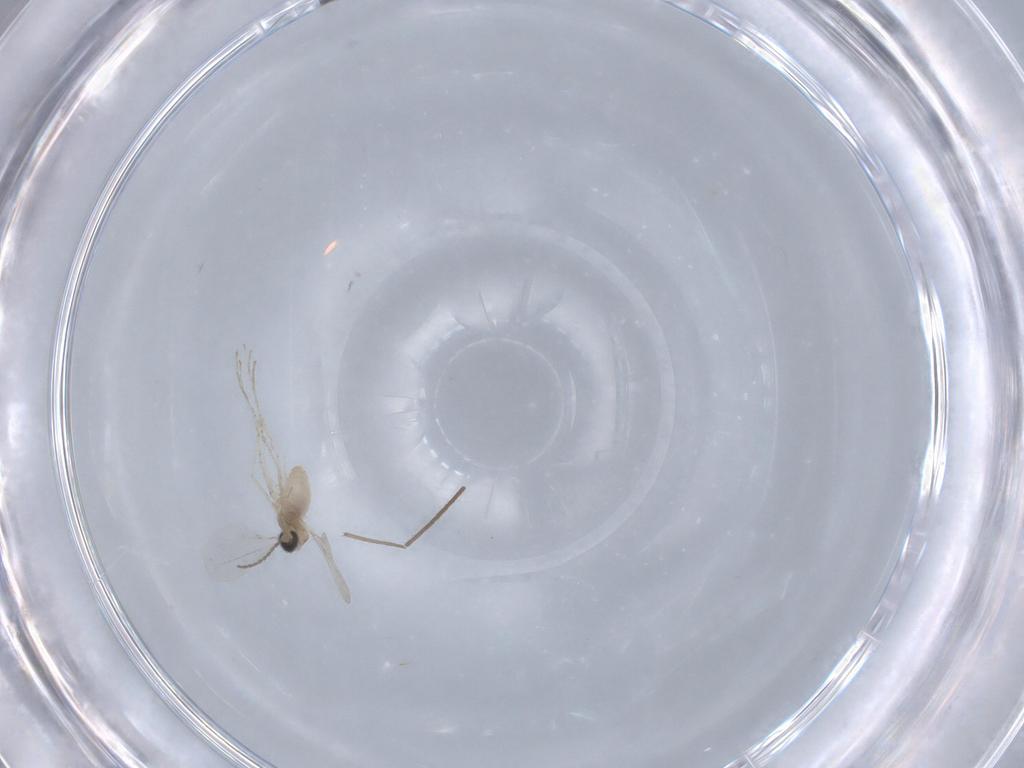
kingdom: Animalia
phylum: Arthropoda
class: Insecta
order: Diptera
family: Chironomidae
